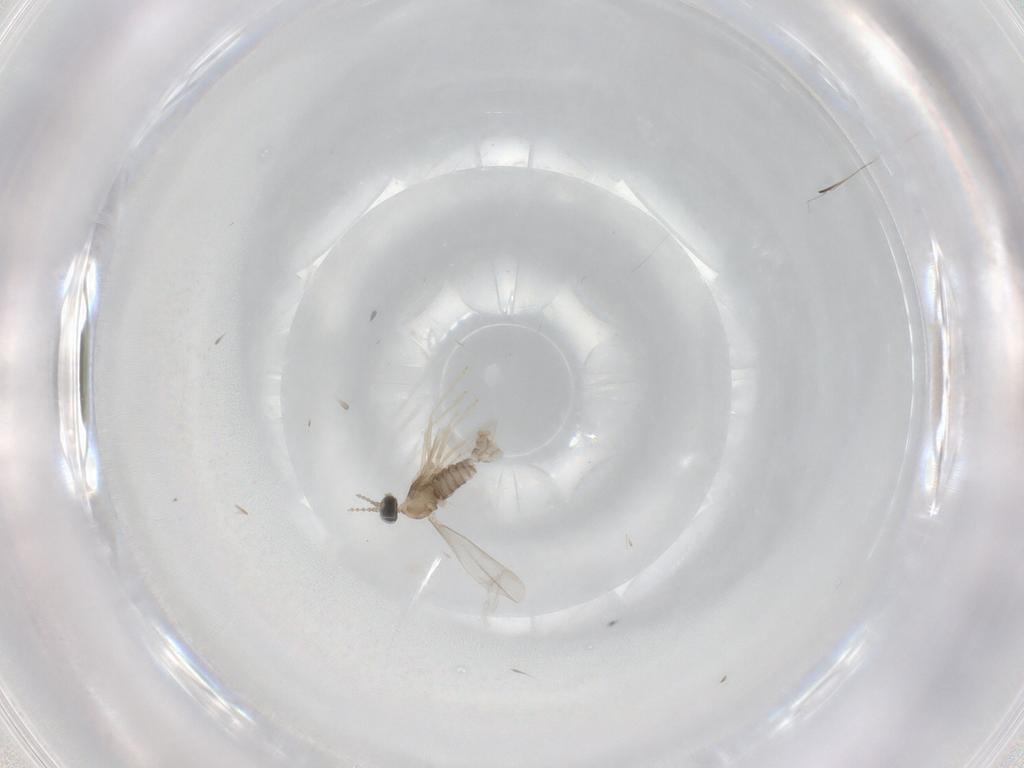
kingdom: Animalia
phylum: Arthropoda
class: Insecta
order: Diptera
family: Cecidomyiidae
